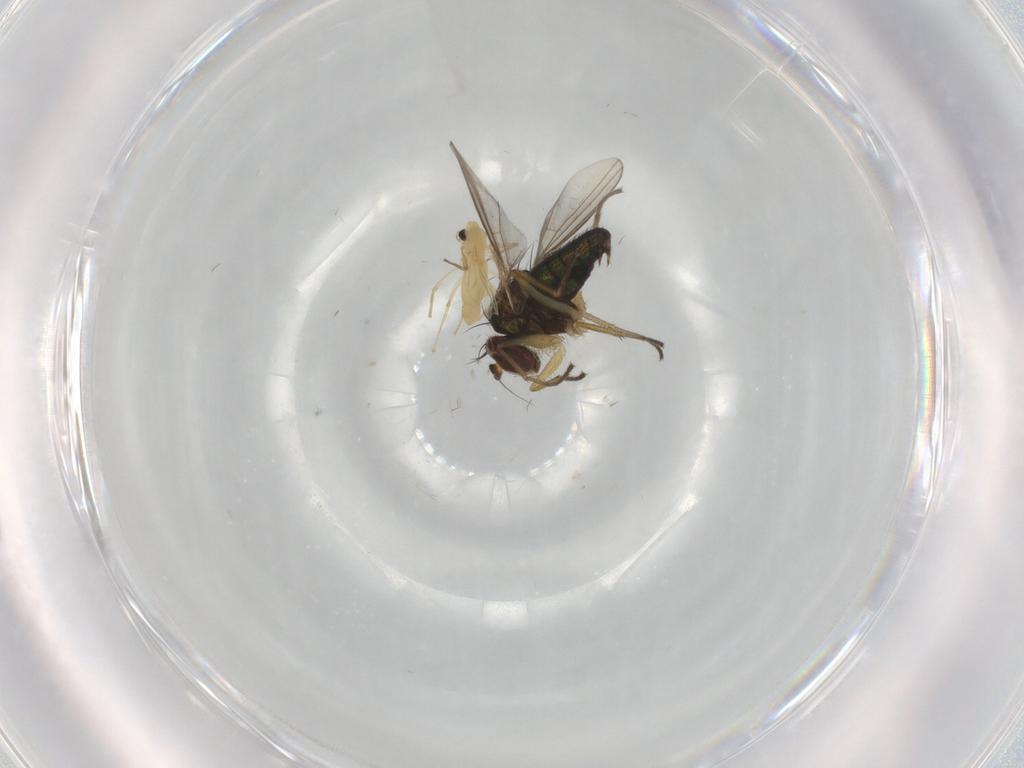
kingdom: Animalia
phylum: Arthropoda
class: Insecta
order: Diptera
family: Chironomidae
